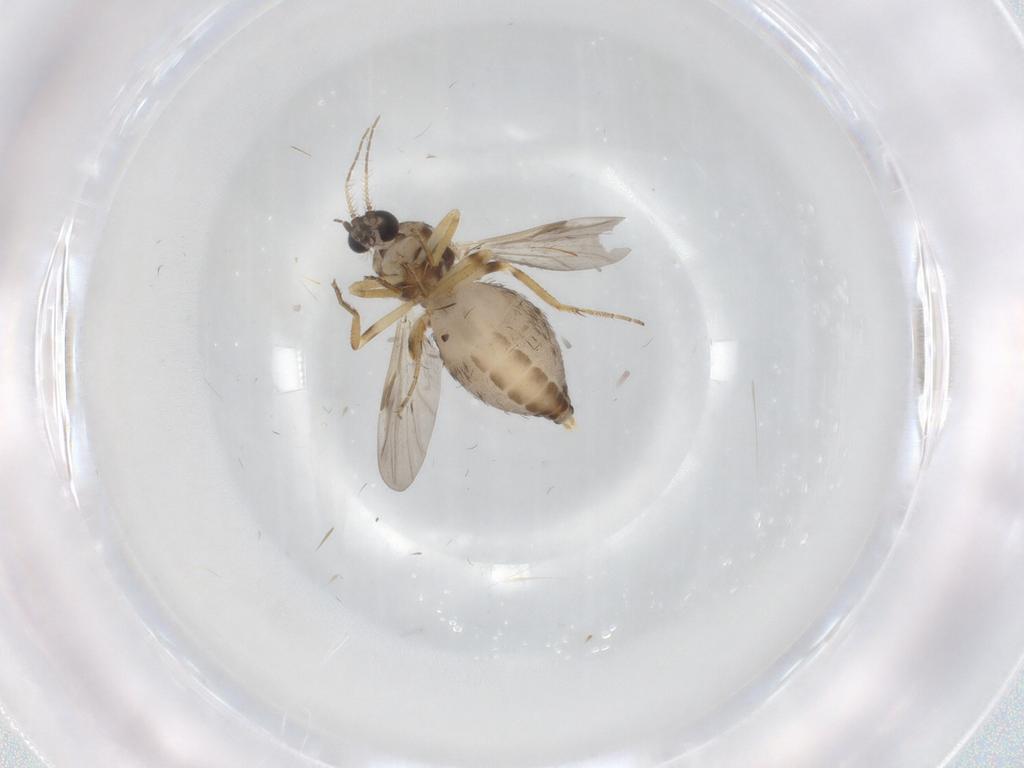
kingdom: Animalia
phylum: Arthropoda
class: Insecta
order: Diptera
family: Ceratopogonidae
